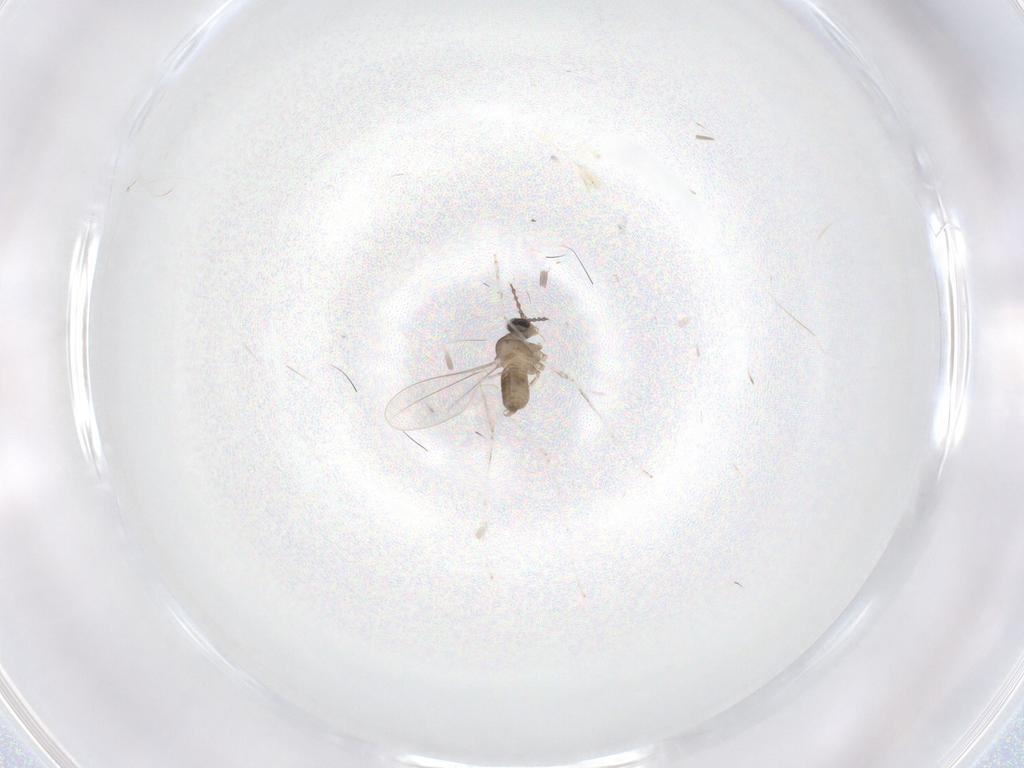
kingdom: Animalia
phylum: Arthropoda
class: Insecta
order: Diptera
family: Cecidomyiidae
